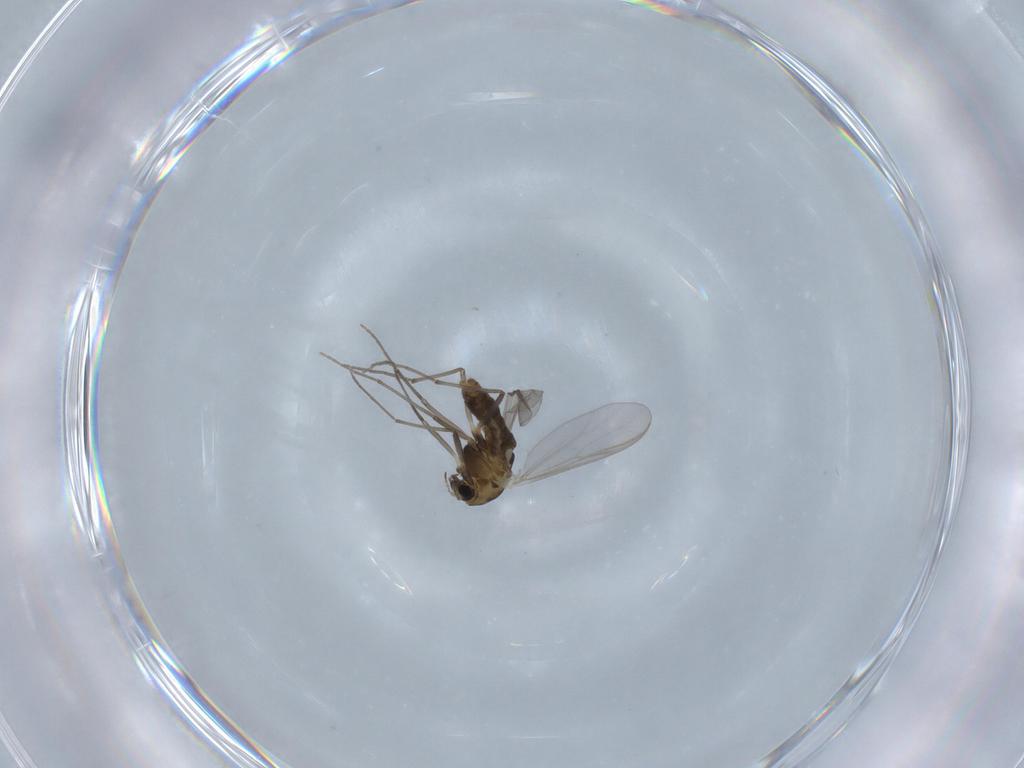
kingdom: Animalia
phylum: Arthropoda
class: Insecta
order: Diptera
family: Chironomidae
